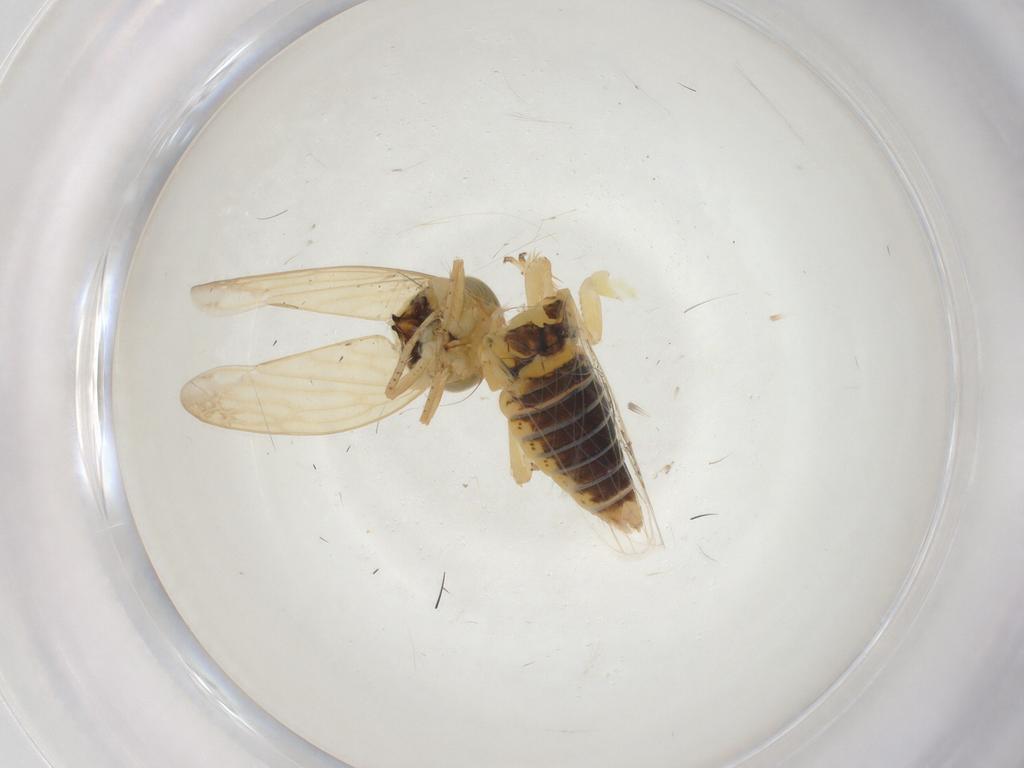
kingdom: Animalia
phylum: Arthropoda
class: Insecta
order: Hemiptera
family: Cicadellidae
